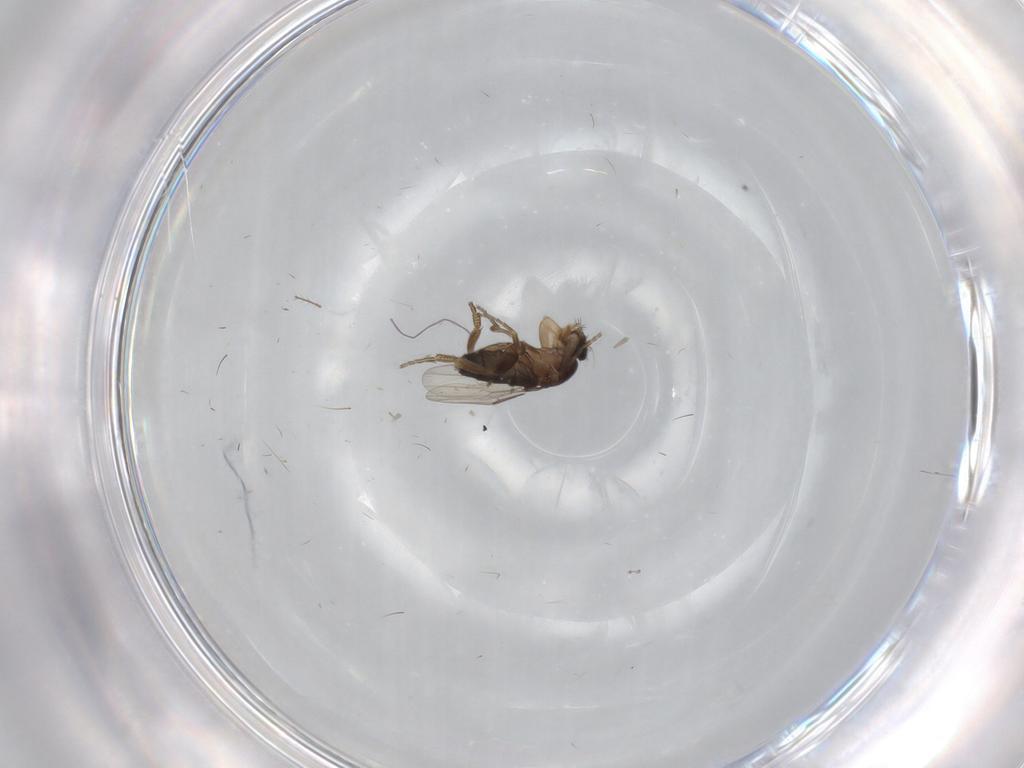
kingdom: Animalia
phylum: Arthropoda
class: Insecta
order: Diptera
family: Phoridae
